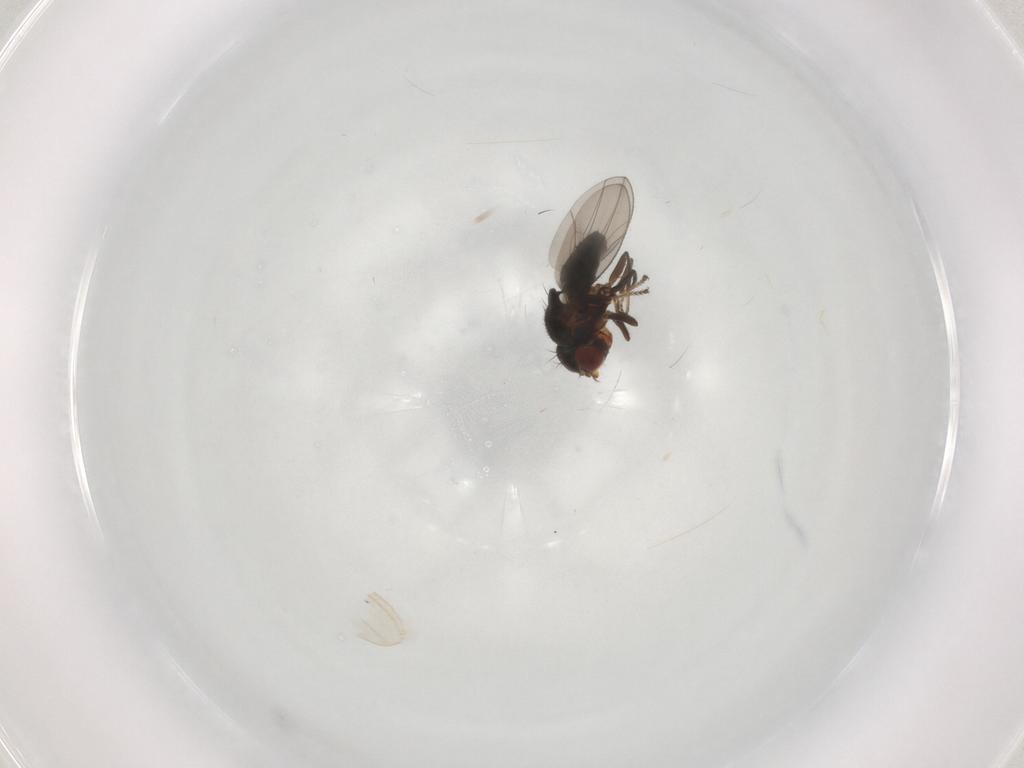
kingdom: Animalia
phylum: Arthropoda
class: Insecta
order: Diptera
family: Ephydridae
